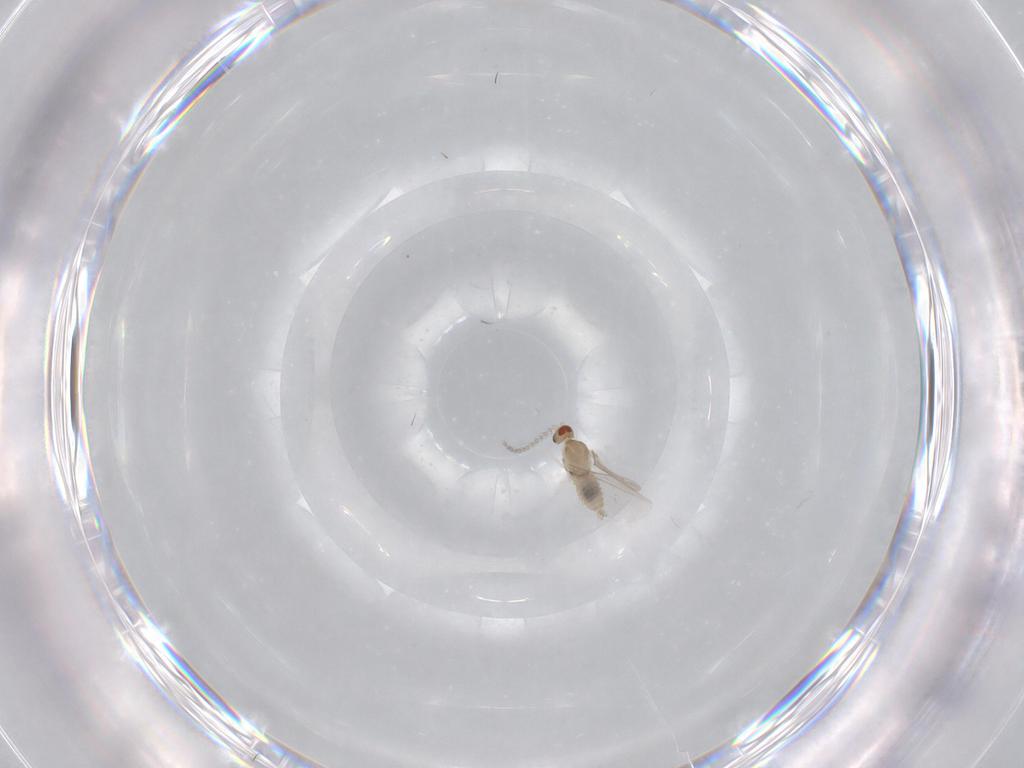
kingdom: Animalia
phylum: Arthropoda
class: Insecta
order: Diptera
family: Cecidomyiidae
